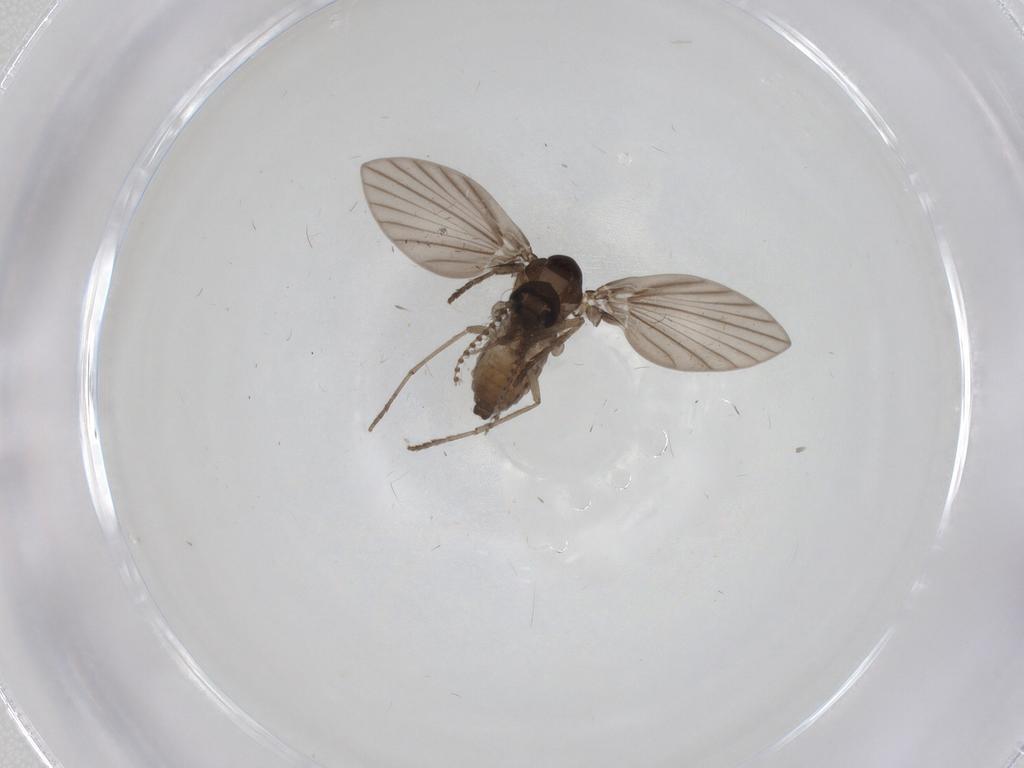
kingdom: Animalia
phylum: Arthropoda
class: Insecta
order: Diptera
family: Psychodidae
